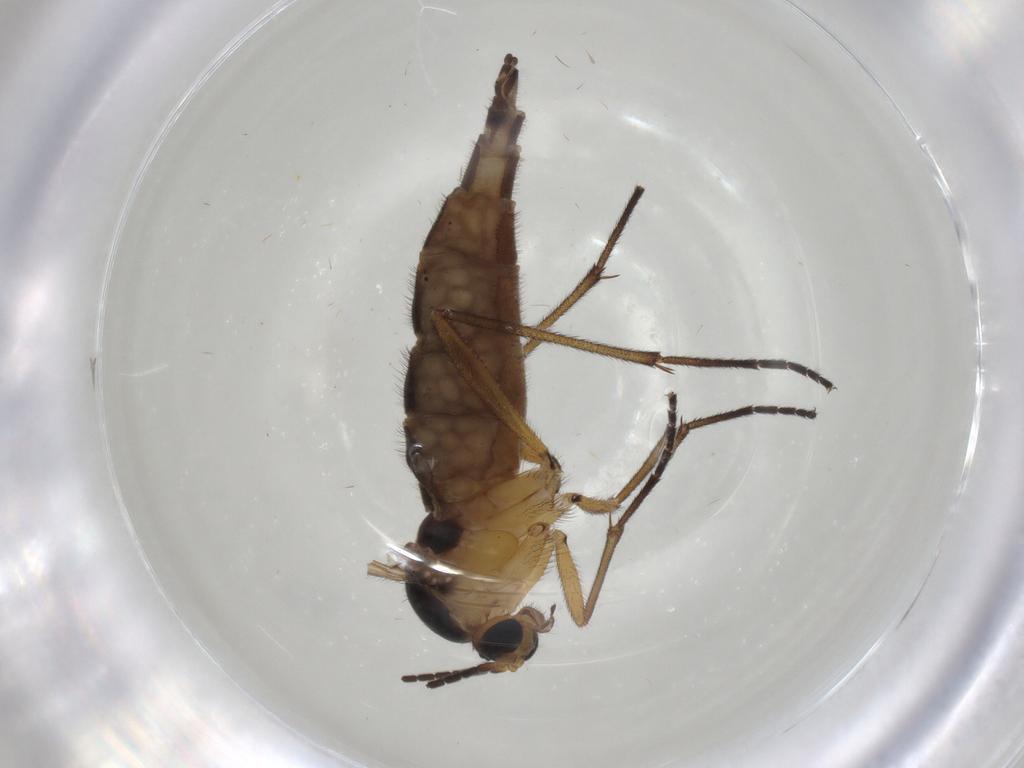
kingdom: Animalia
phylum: Arthropoda
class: Insecta
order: Diptera
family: Sciaridae
